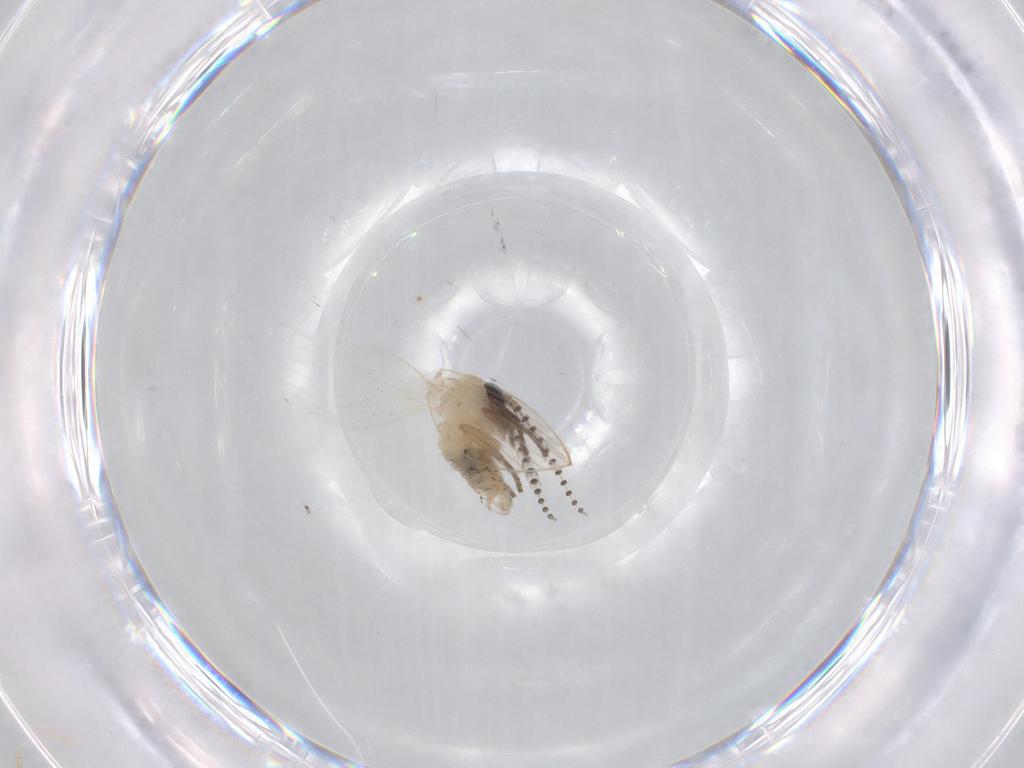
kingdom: Animalia
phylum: Arthropoda
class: Insecta
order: Diptera
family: Psychodidae
